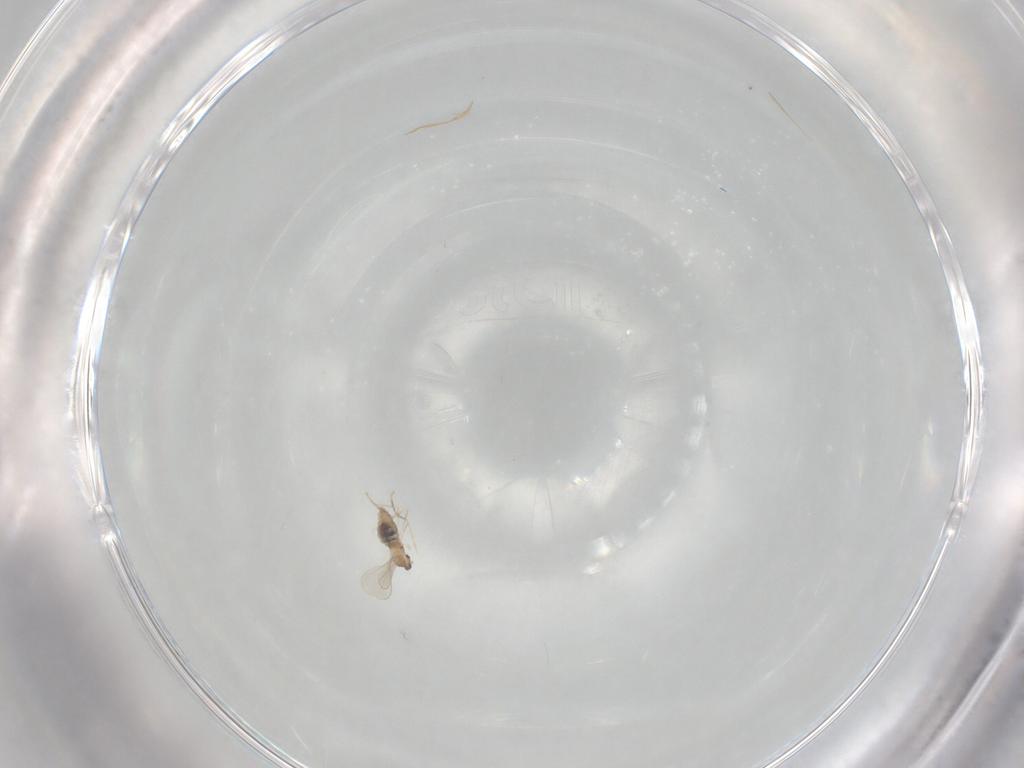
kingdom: Animalia
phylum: Arthropoda
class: Insecta
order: Diptera
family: Cecidomyiidae
